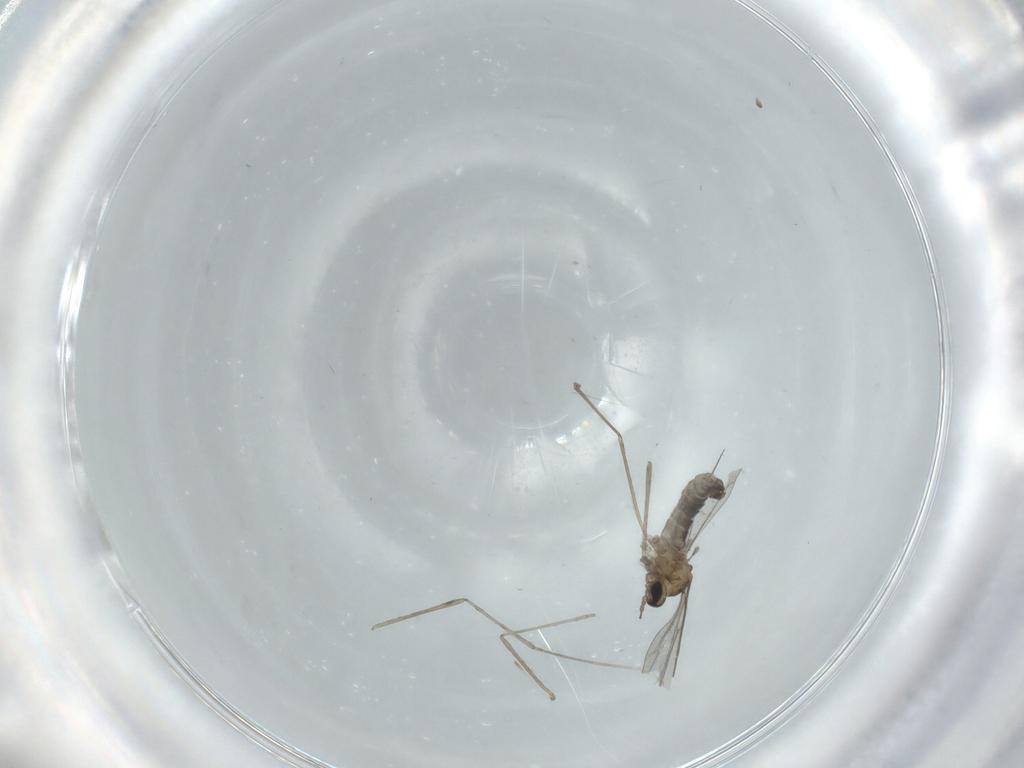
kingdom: Animalia
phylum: Arthropoda
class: Insecta
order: Diptera
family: Cecidomyiidae
